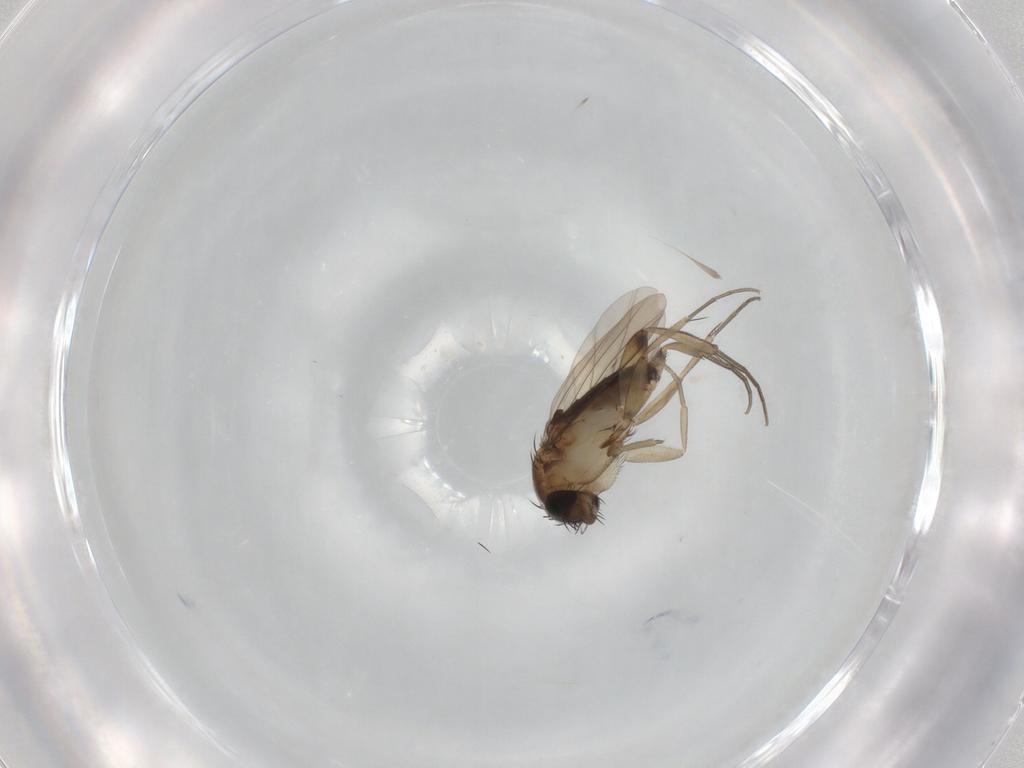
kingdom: Animalia
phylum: Arthropoda
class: Insecta
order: Diptera
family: Phoridae
